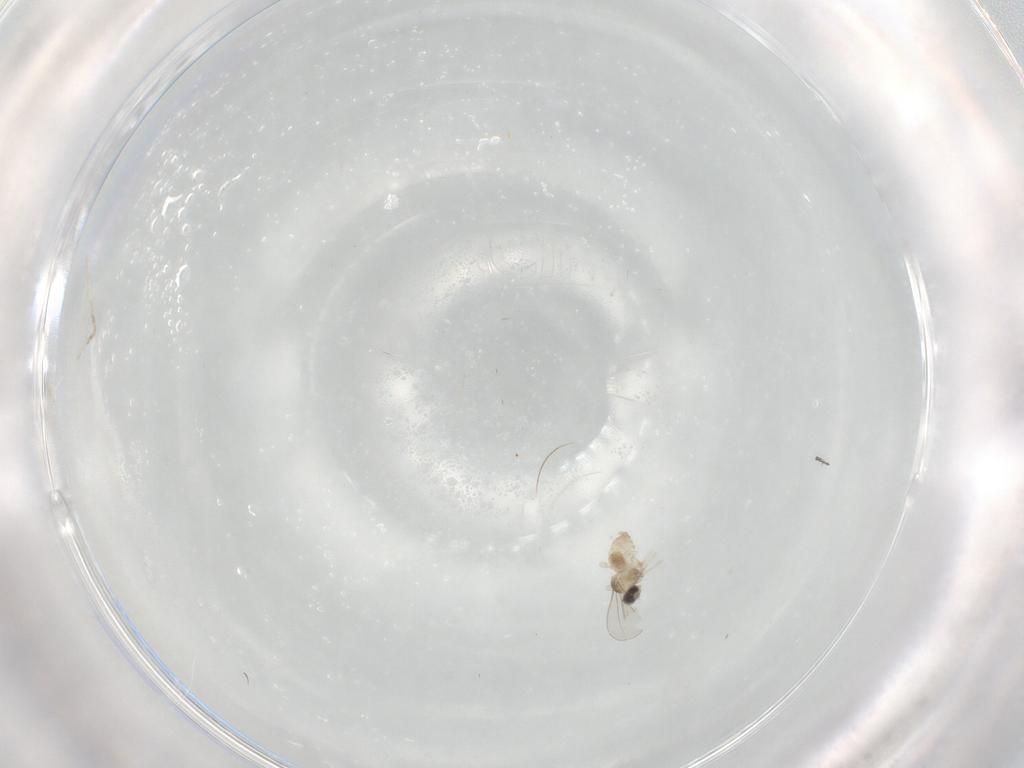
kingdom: Animalia
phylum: Arthropoda
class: Insecta
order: Diptera
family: Cecidomyiidae
